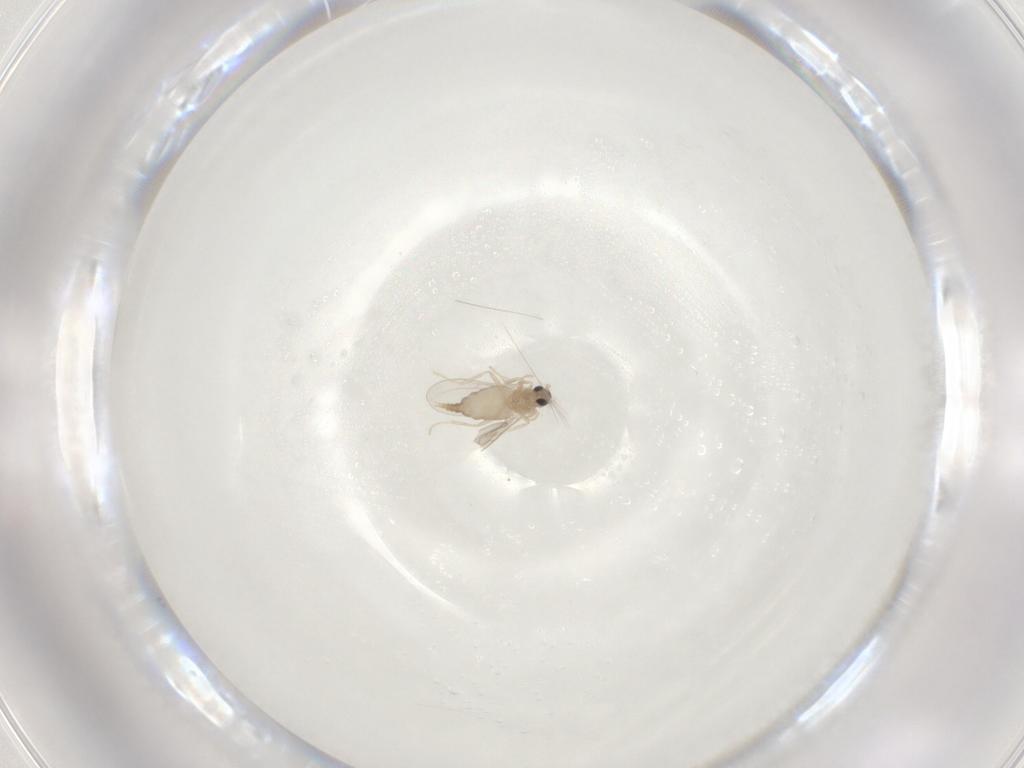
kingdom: Animalia
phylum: Arthropoda
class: Insecta
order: Diptera
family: Cecidomyiidae
